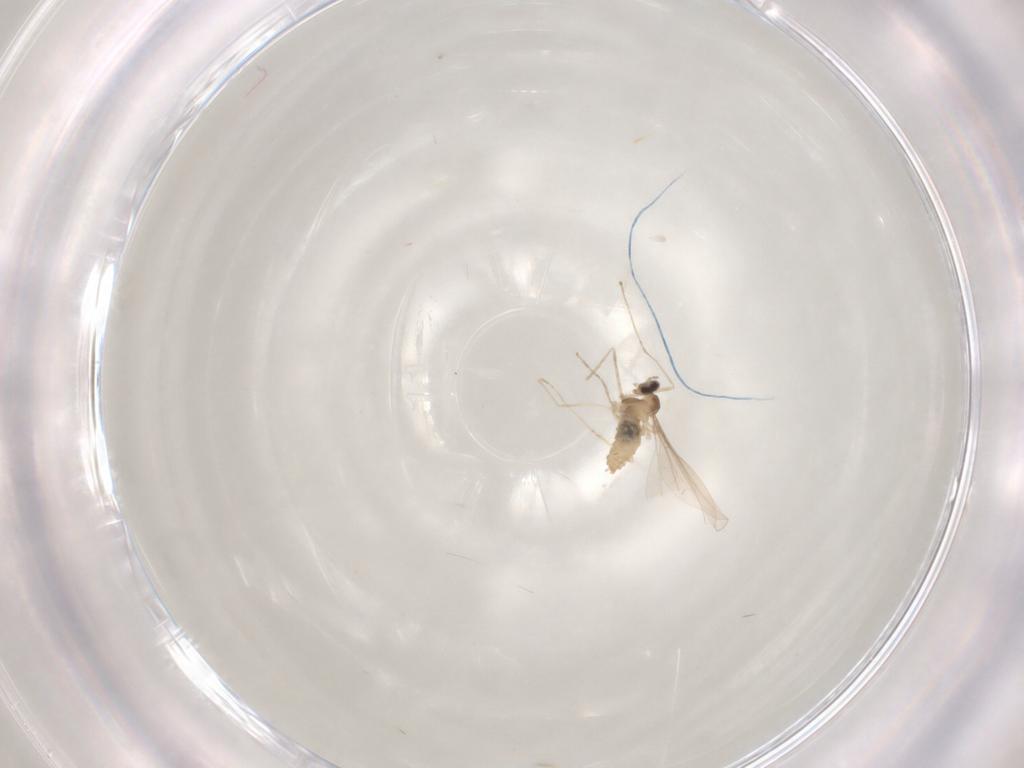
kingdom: Animalia
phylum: Arthropoda
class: Insecta
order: Diptera
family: Cecidomyiidae
